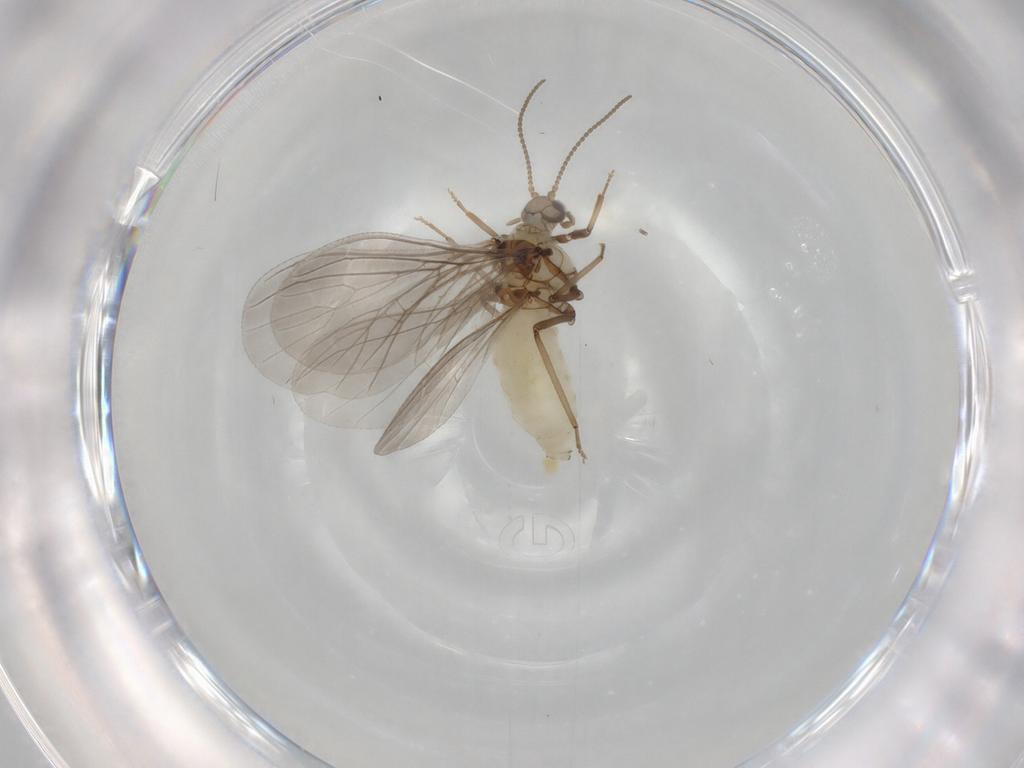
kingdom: Animalia
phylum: Arthropoda
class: Insecta
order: Neuroptera
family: Coniopterygidae
